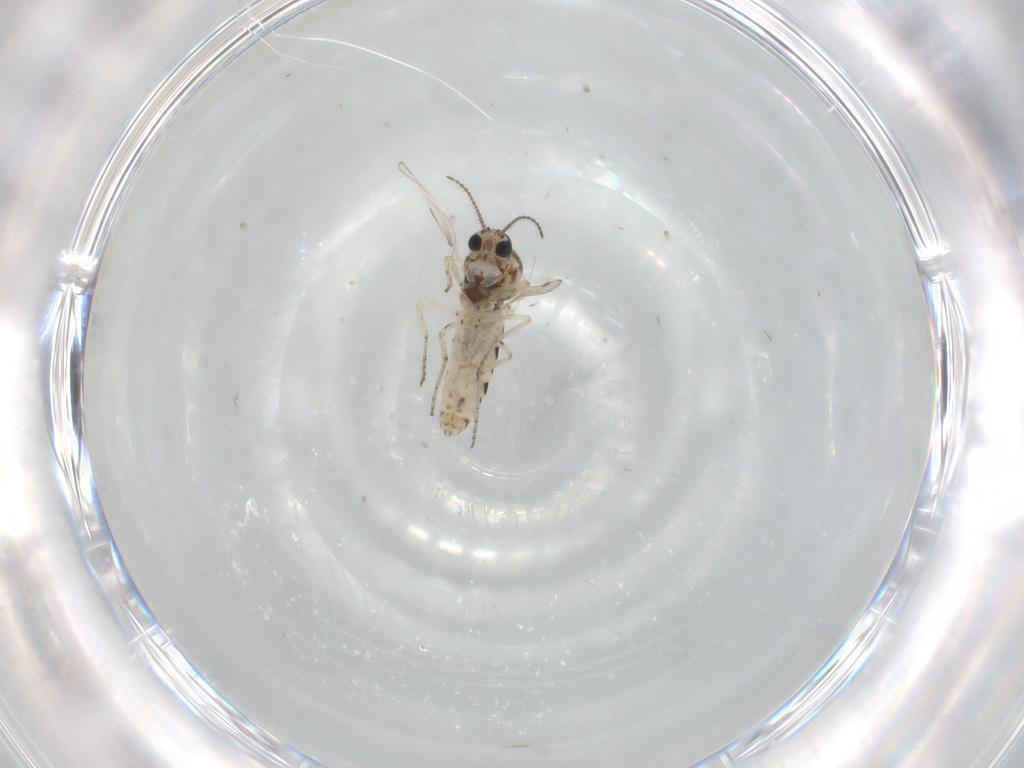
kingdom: Animalia
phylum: Arthropoda
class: Insecta
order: Diptera
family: Ceratopogonidae
